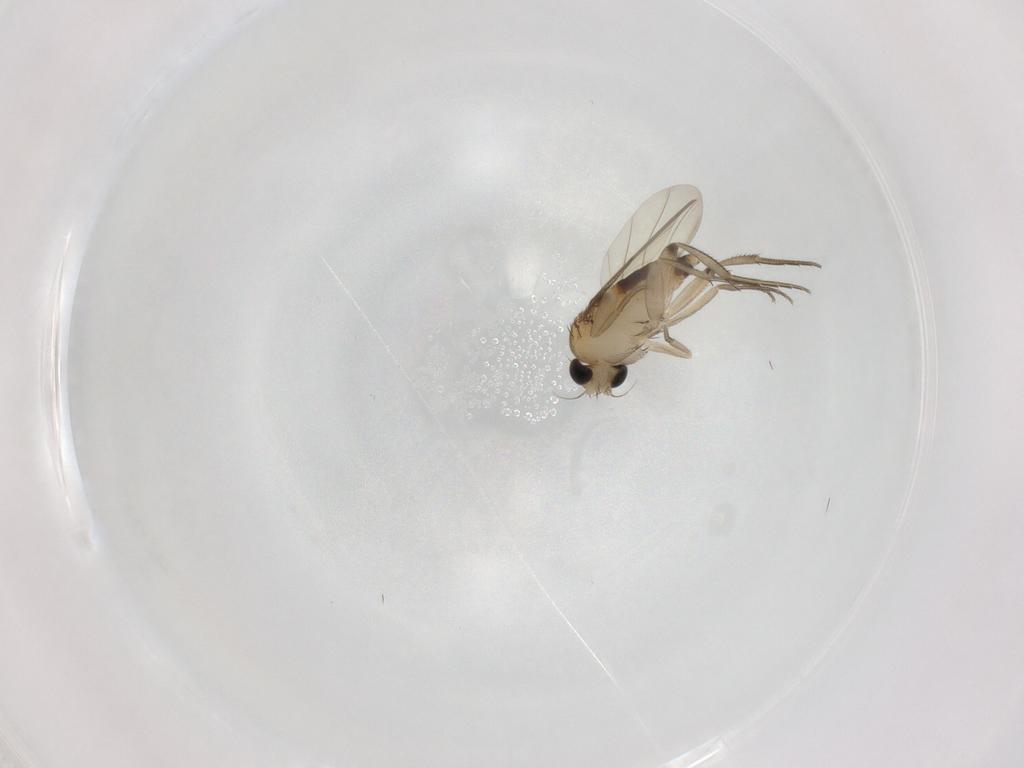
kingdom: Animalia
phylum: Arthropoda
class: Insecta
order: Diptera
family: Phoridae
